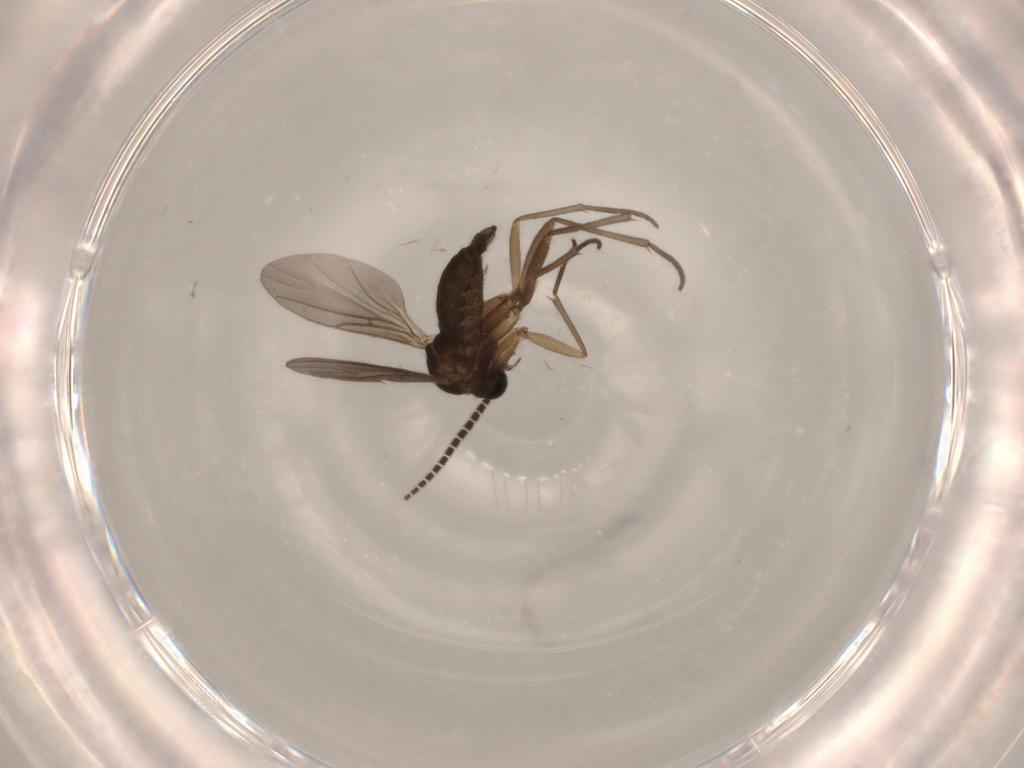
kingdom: Animalia
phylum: Arthropoda
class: Insecta
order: Diptera
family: Sciaridae
